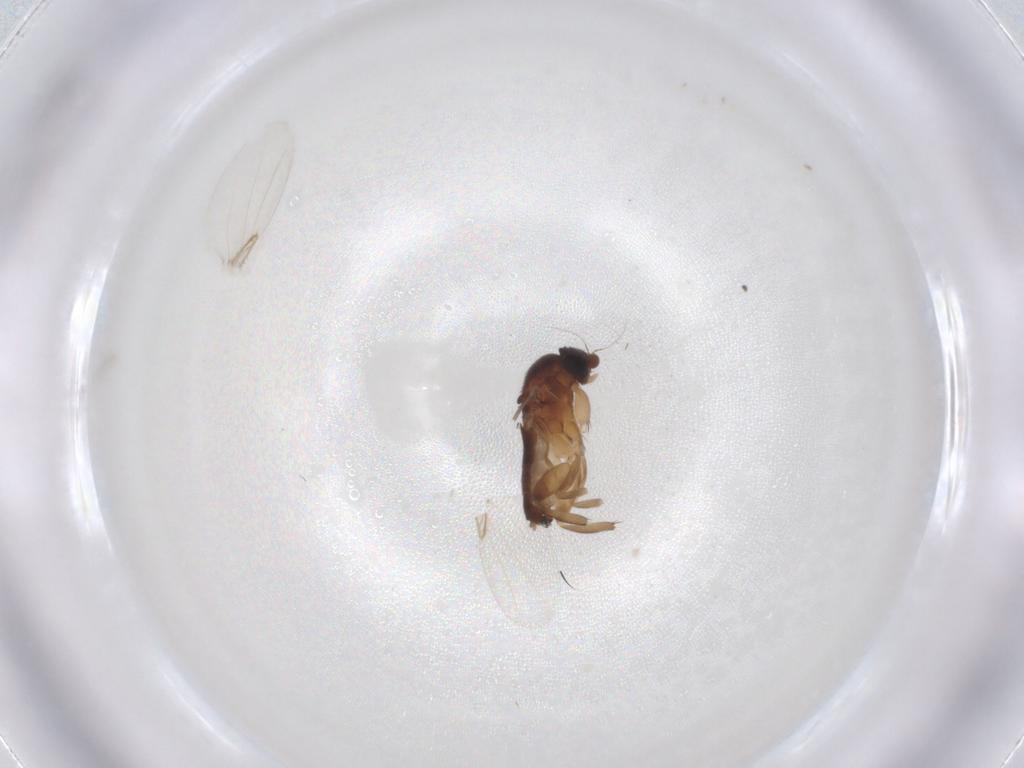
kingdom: Animalia
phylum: Arthropoda
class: Insecta
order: Diptera
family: Phoridae
